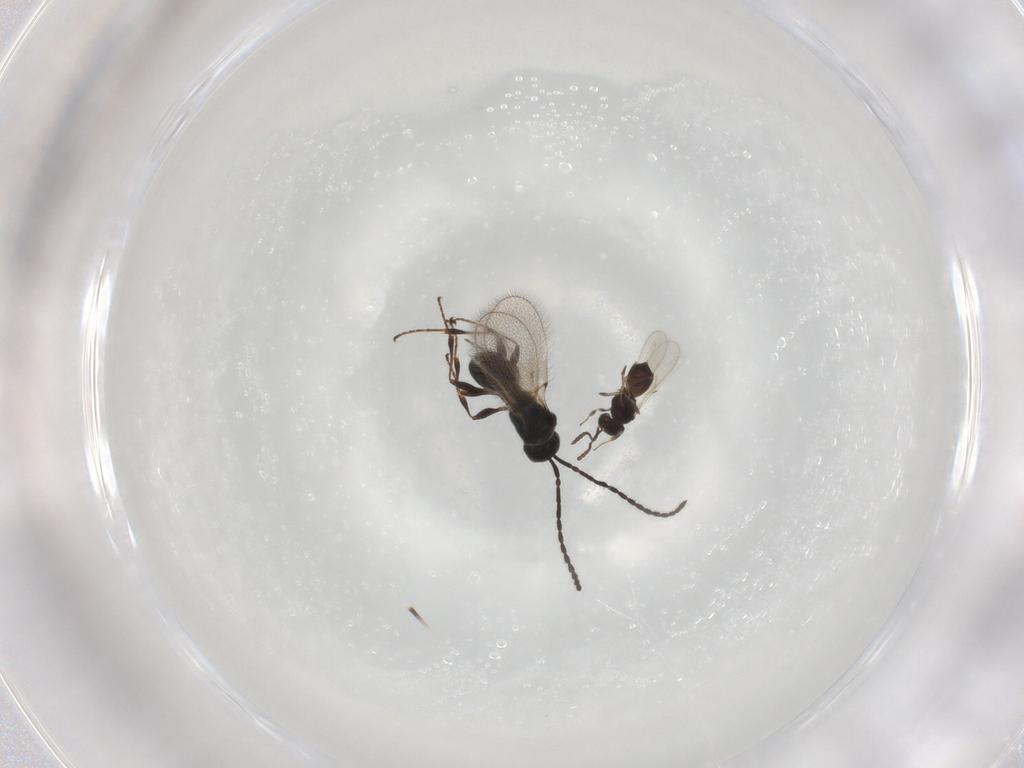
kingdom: Animalia
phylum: Arthropoda
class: Insecta
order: Hymenoptera
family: Scelionidae
